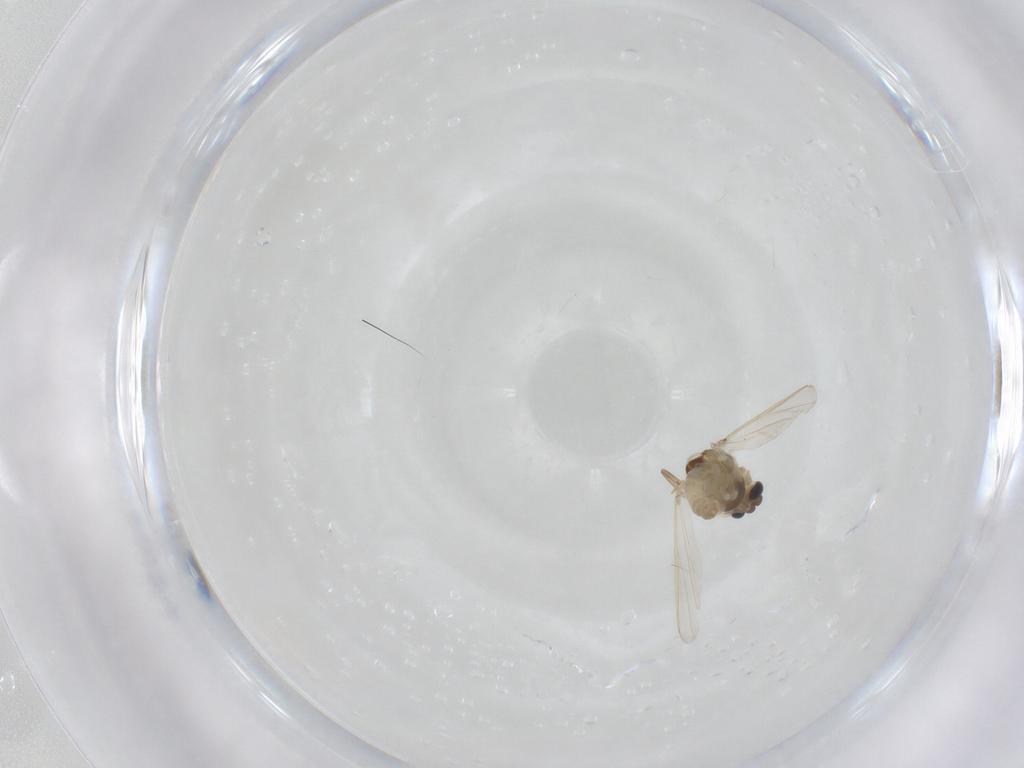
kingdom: Animalia
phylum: Arthropoda
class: Insecta
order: Diptera
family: Chironomidae
